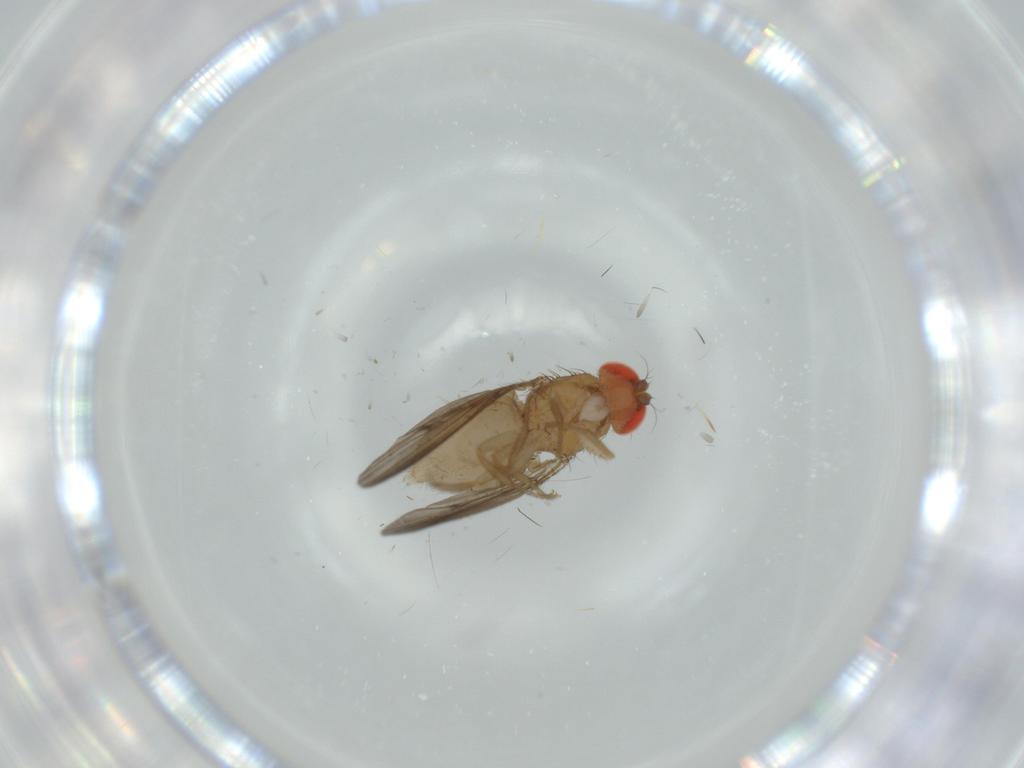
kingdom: Animalia
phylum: Arthropoda
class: Insecta
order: Diptera
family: Drosophilidae
